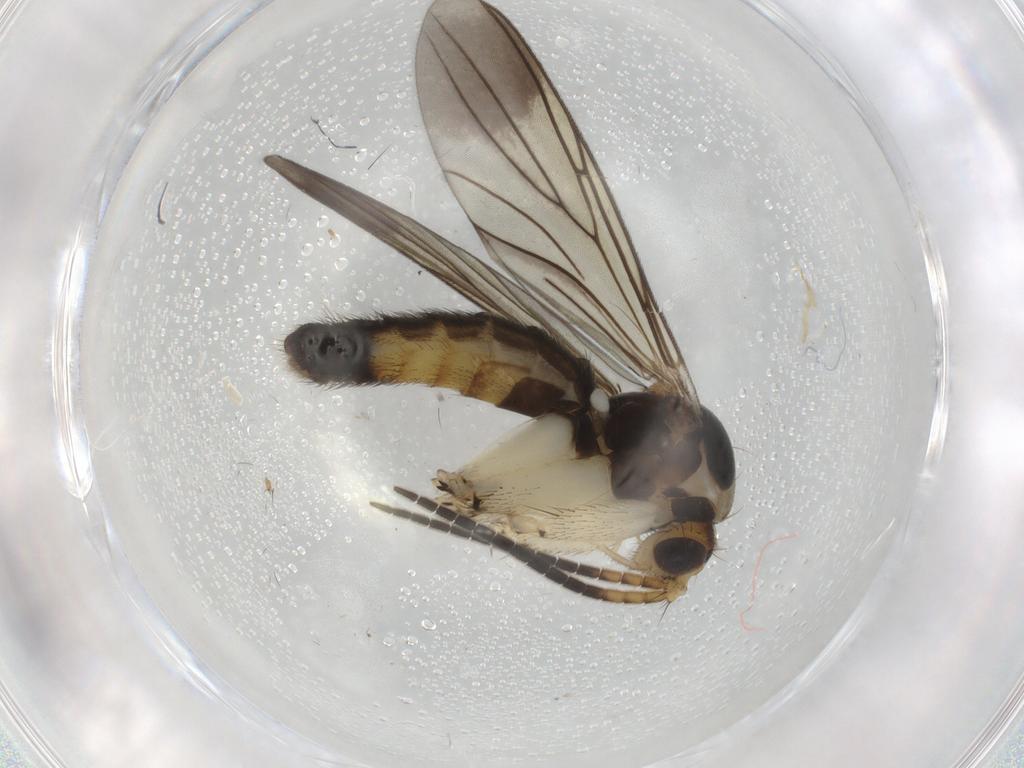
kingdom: Animalia
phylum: Arthropoda
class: Insecta
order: Diptera
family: Mycetophilidae
